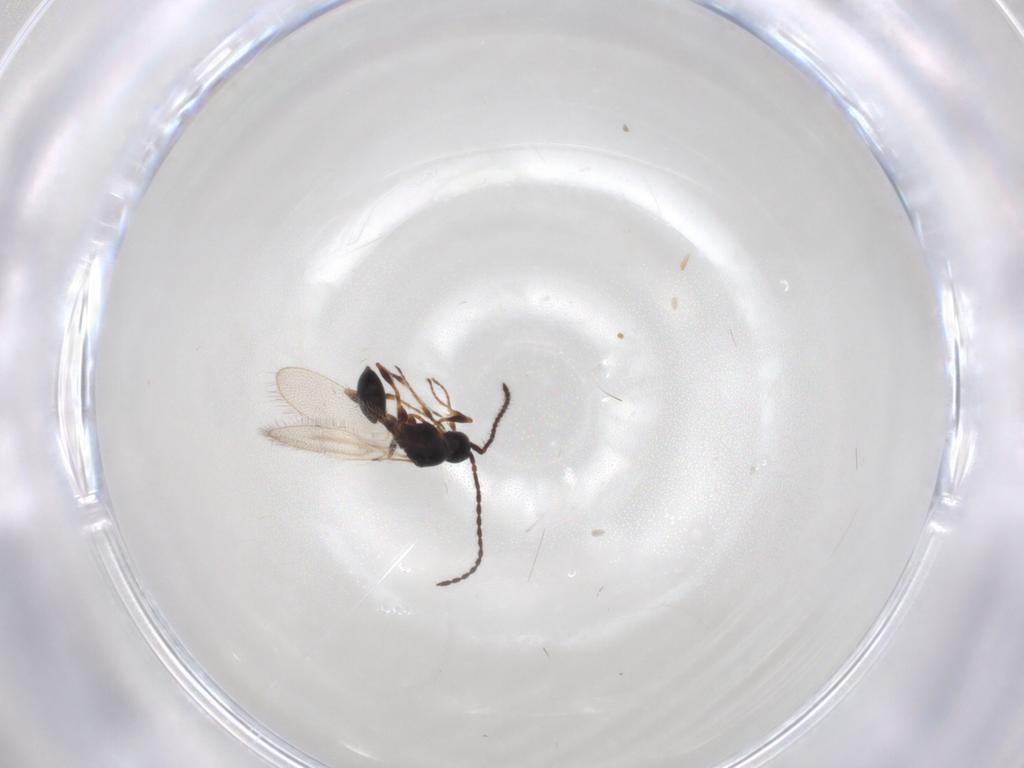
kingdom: Animalia
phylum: Arthropoda
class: Insecta
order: Hymenoptera
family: Diapriidae
